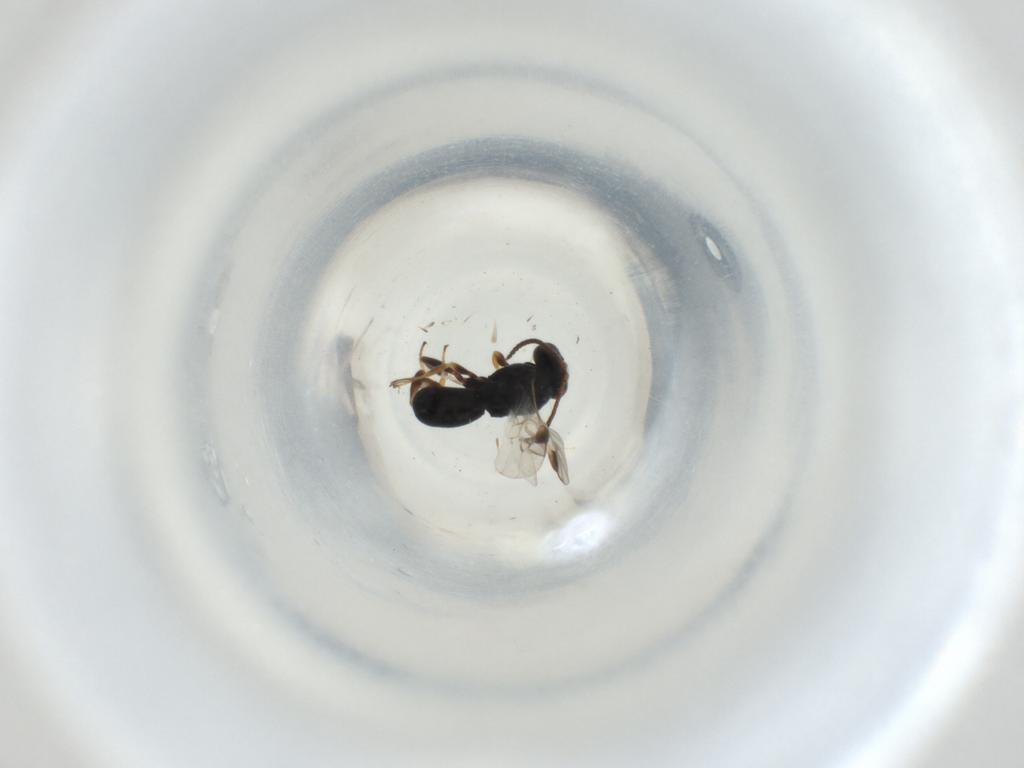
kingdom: Animalia
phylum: Arthropoda
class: Insecta
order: Hymenoptera
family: Braconidae
